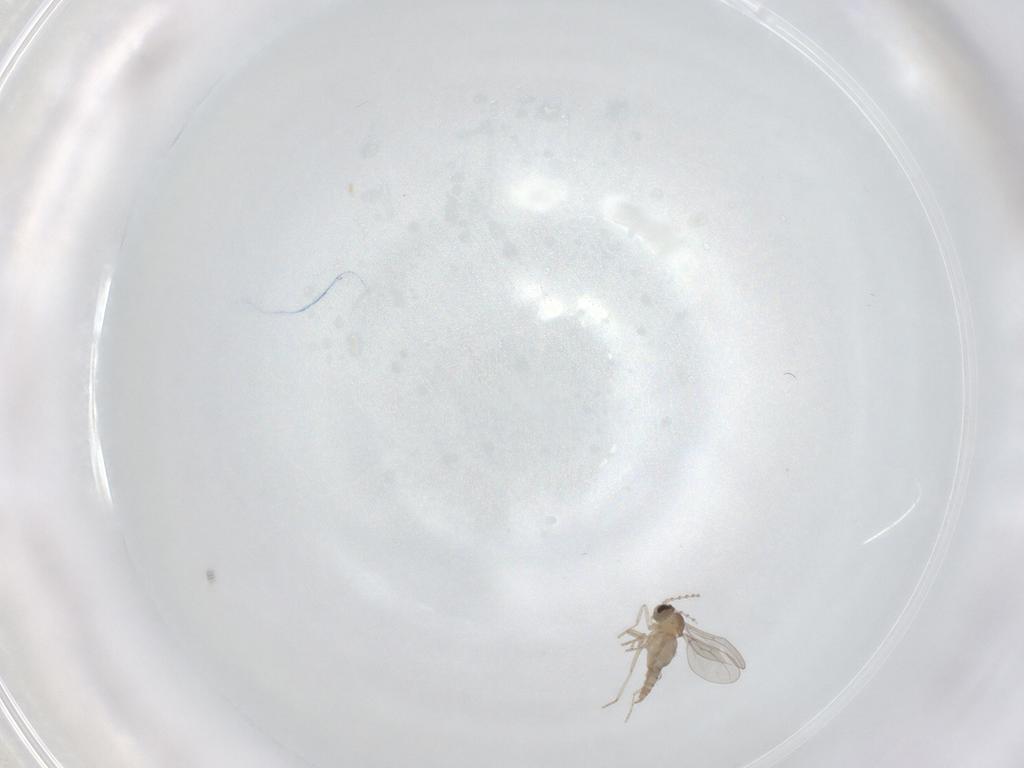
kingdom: Animalia
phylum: Arthropoda
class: Insecta
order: Diptera
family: Cecidomyiidae
